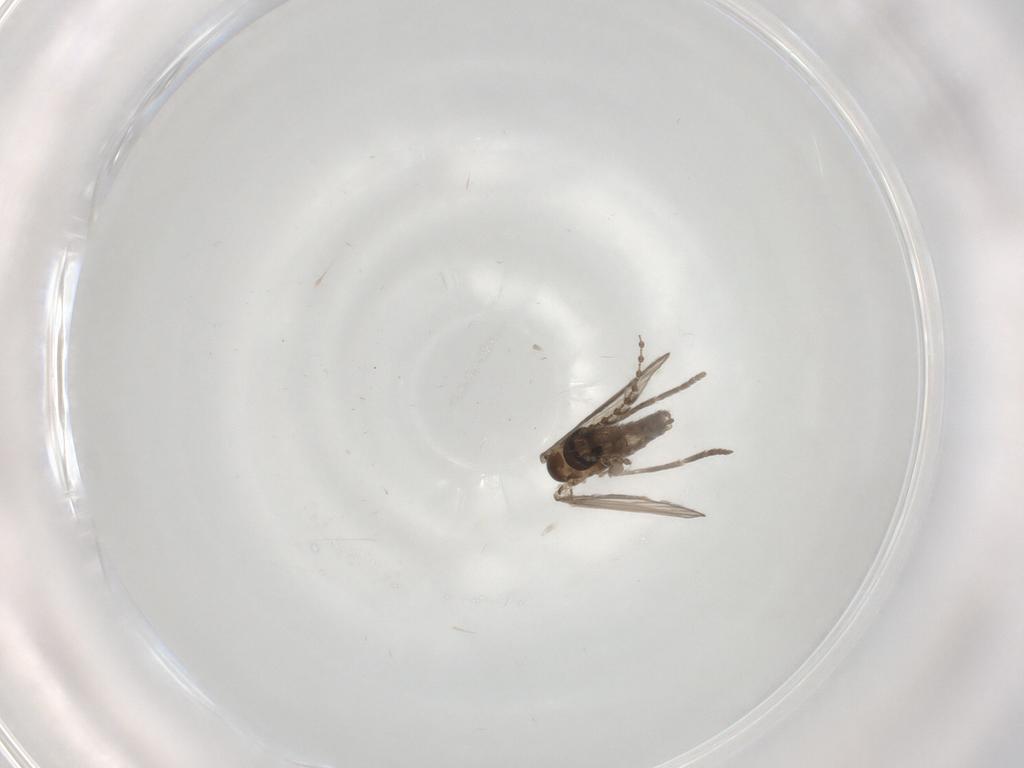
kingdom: Animalia
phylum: Arthropoda
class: Insecta
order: Diptera
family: Psychodidae
